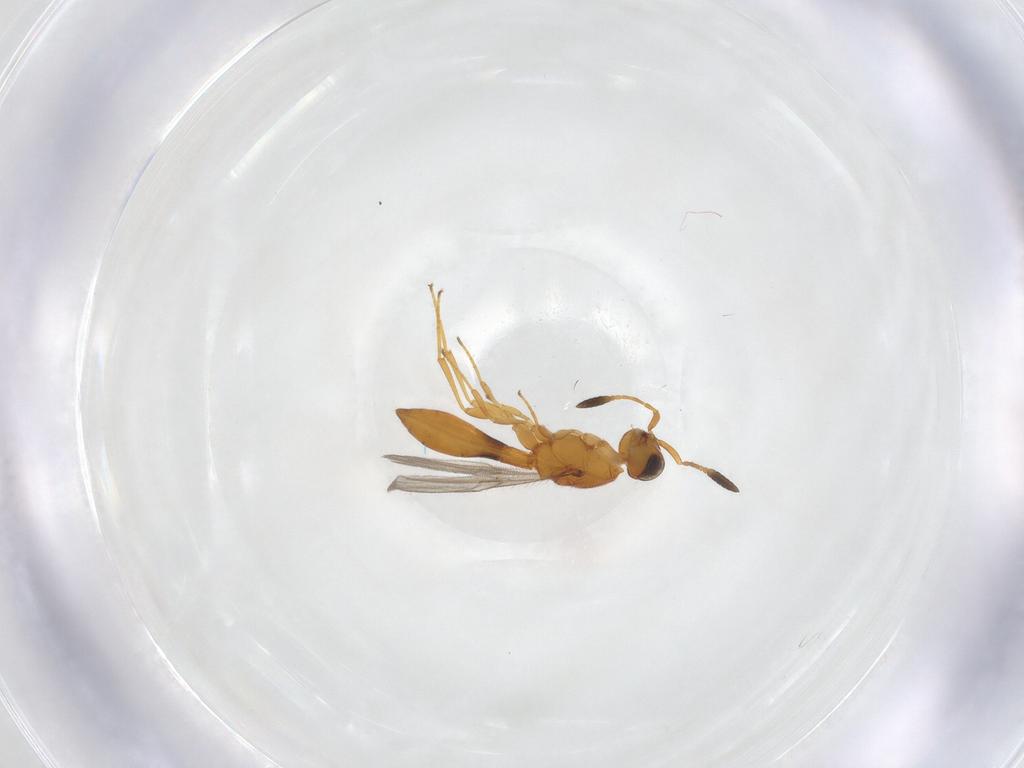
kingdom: Animalia
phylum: Arthropoda
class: Insecta
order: Hymenoptera
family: Scelionidae
